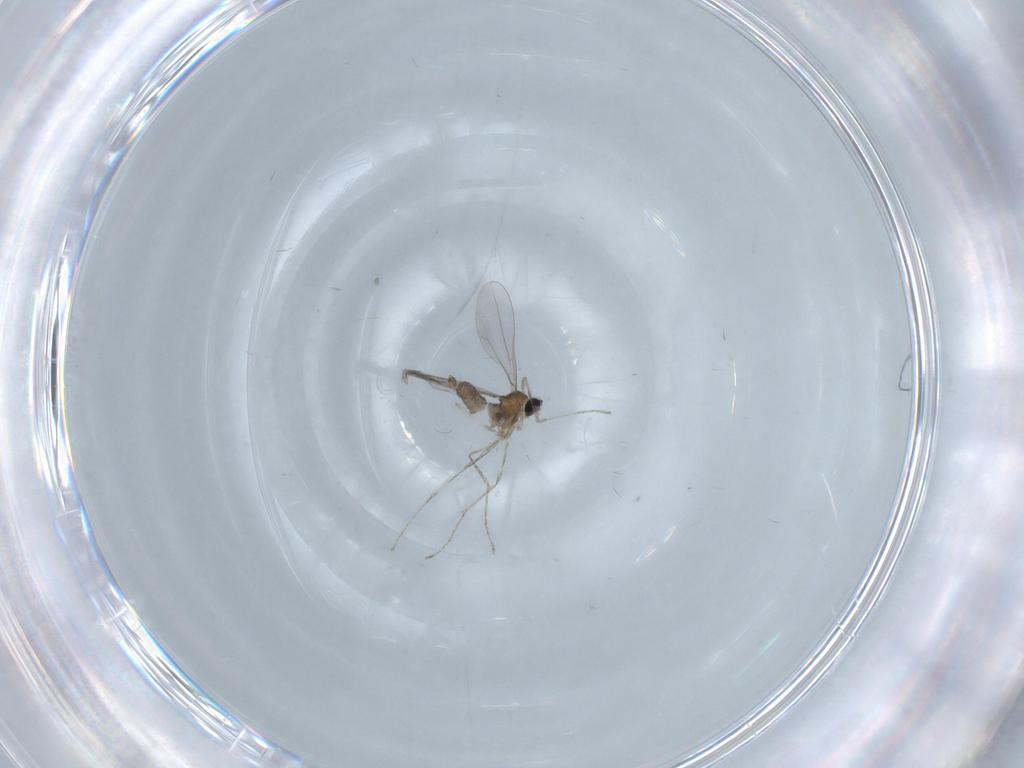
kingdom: Animalia
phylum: Arthropoda
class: Insecta
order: Diptera
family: Cecidomyiidae
